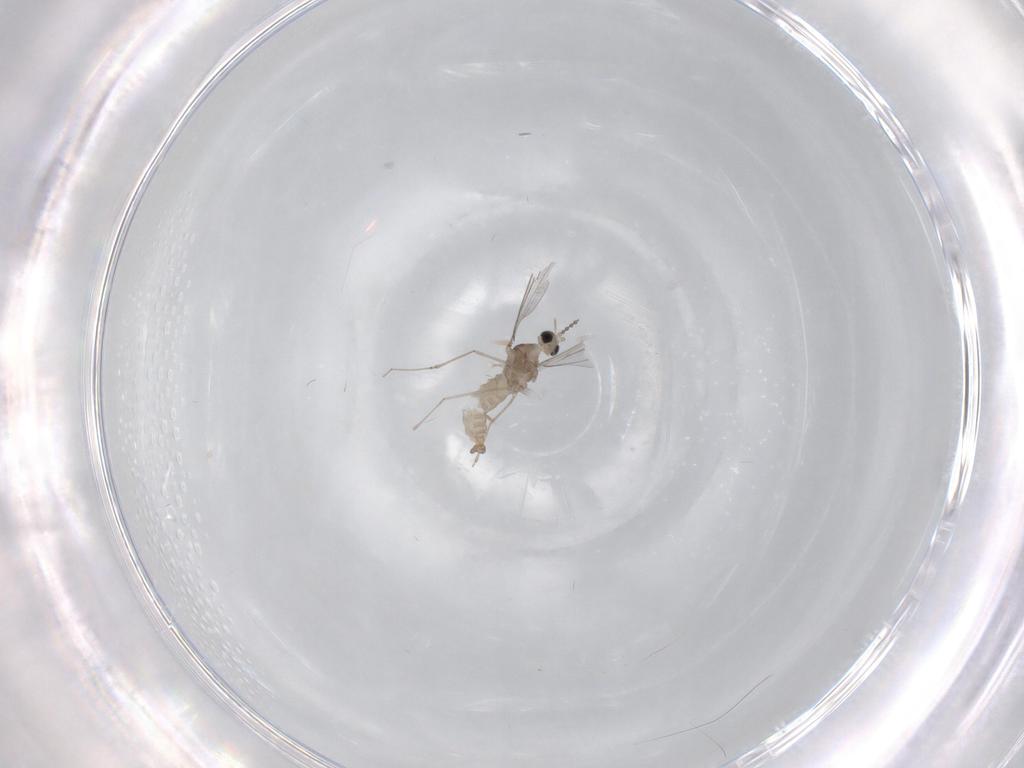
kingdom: Animalia
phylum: Arthropoda
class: Insecta
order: Diptera
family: Cecidomyiidae
